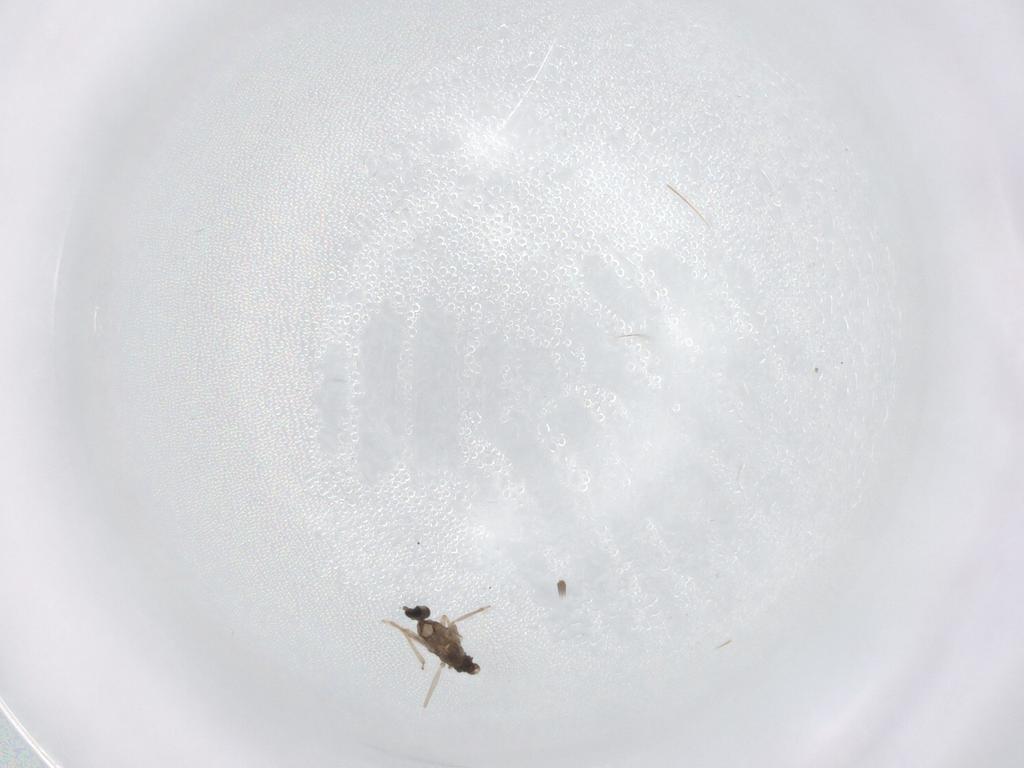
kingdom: Animalia
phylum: Arthropoda
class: Insecta
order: Diptera
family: Cecidomyiidae
